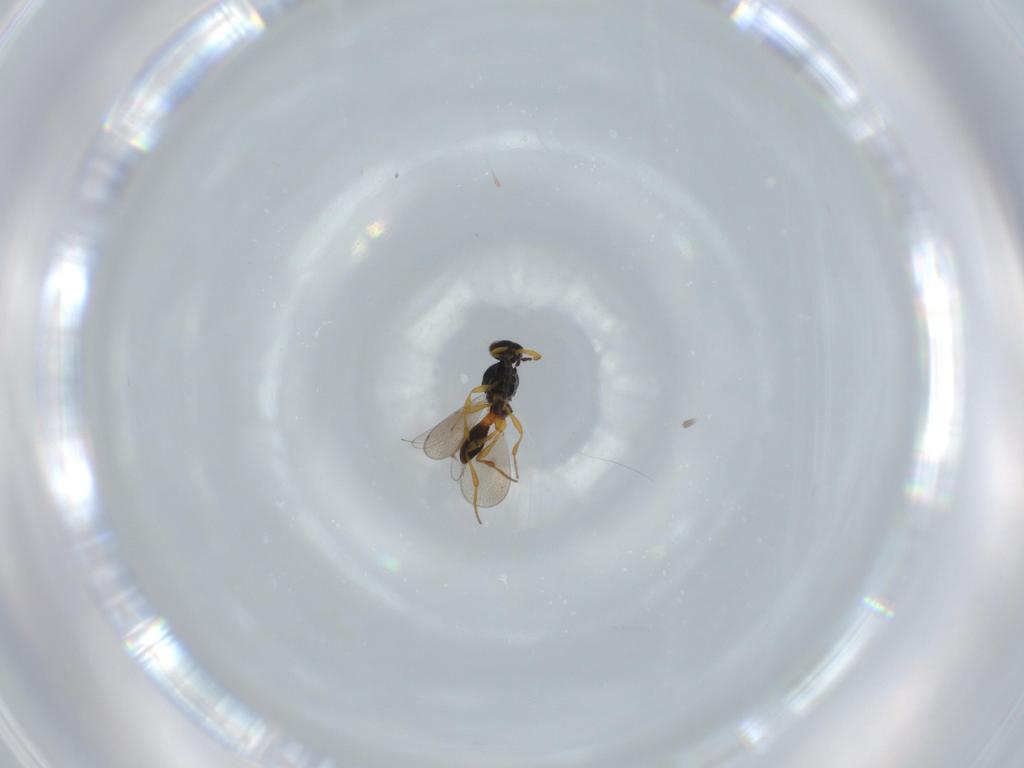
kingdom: Animalia
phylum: Arthropoda
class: Insecta
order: Hymenoptera
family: Platygastridae
